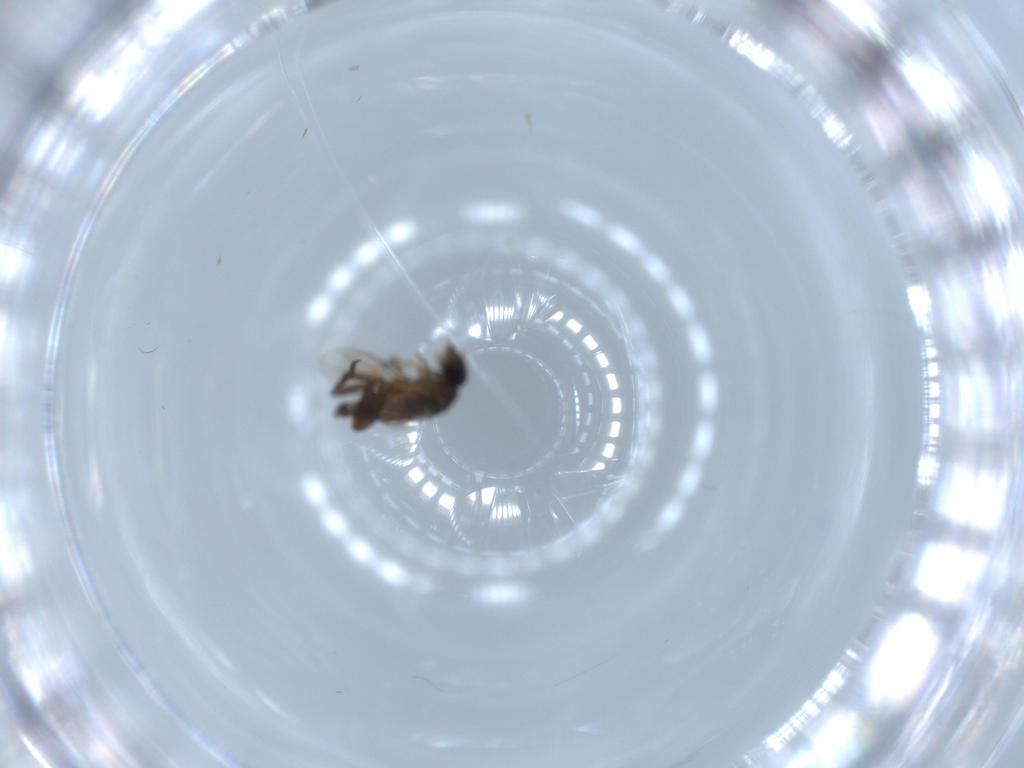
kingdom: Animalia
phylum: Arthropoda
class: Insecta
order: Diptera
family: Phoridae
